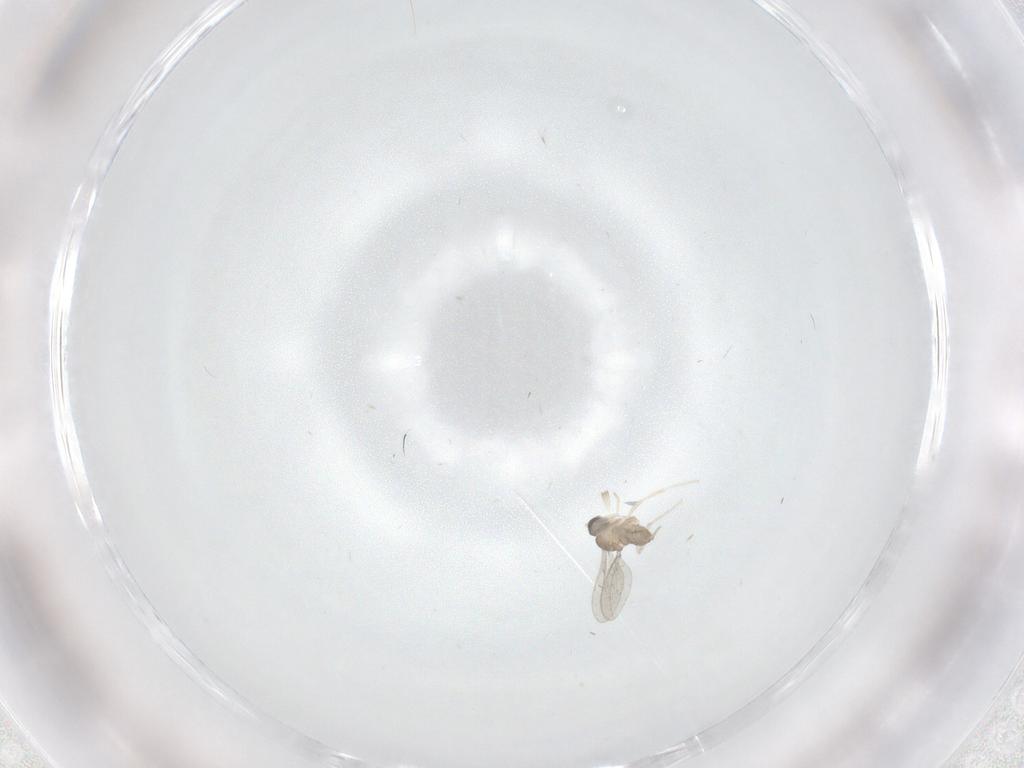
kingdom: Animalia
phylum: Arthropoda
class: Insecta
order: Diptera
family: Cecidomyiidae
